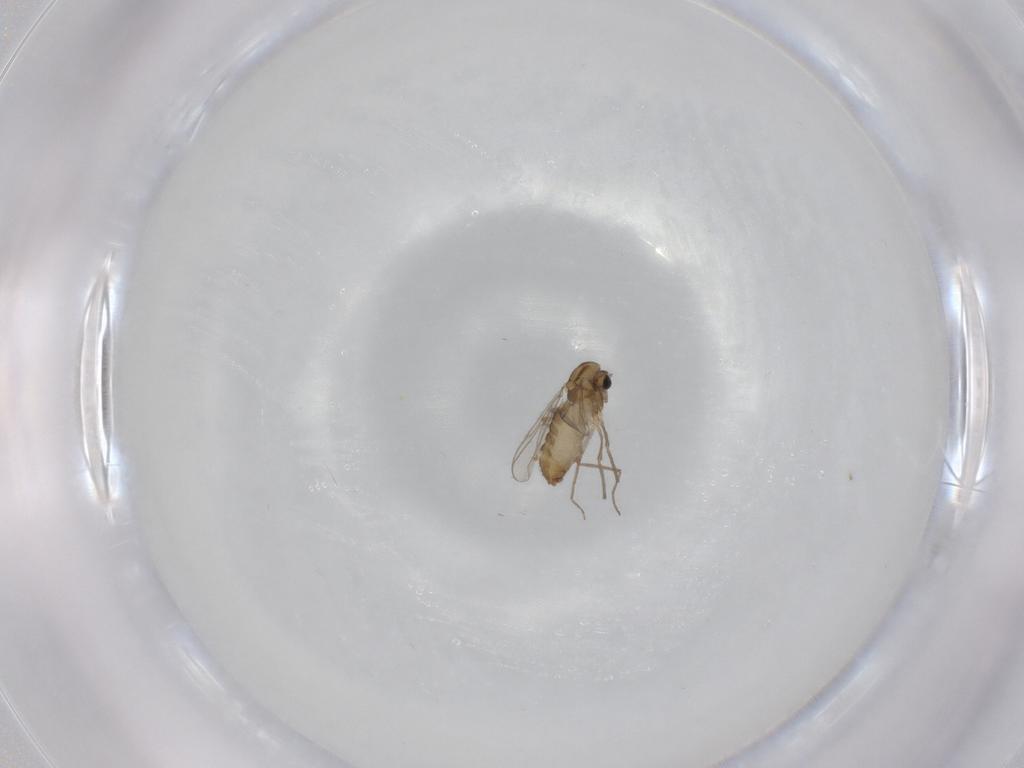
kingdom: Animalia
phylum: Arthropoda
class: Insecta
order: Diptera
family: Chironomidae
